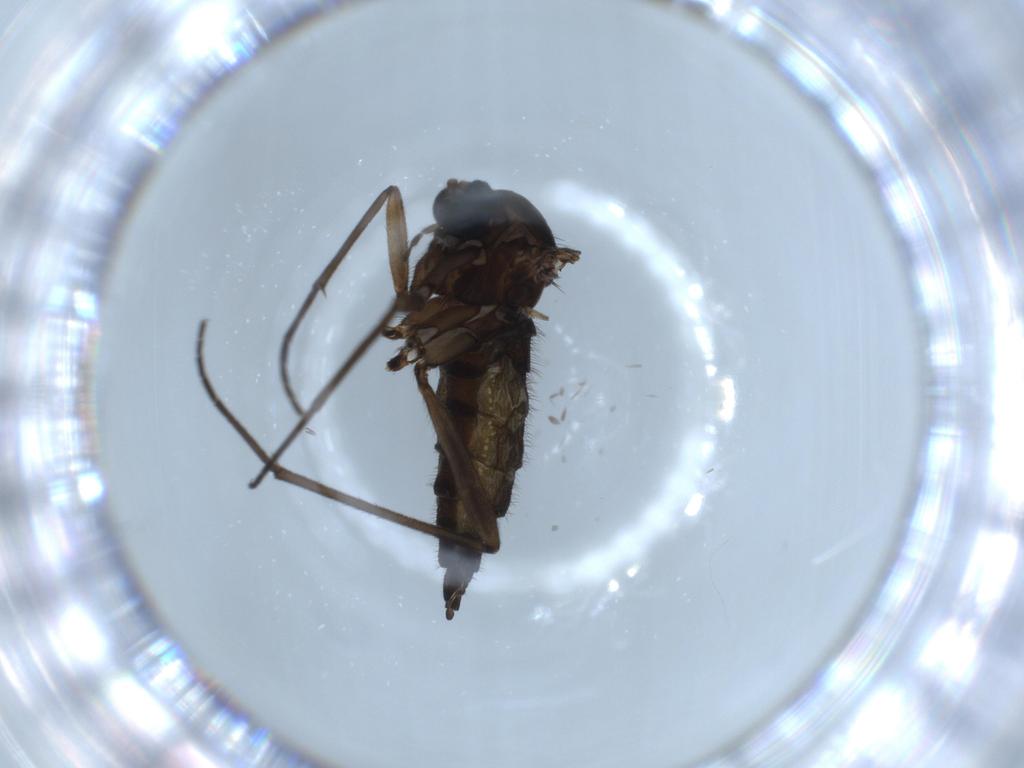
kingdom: Animalia
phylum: Arthropoda
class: Insecta
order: Diptera
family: Sciaridae
